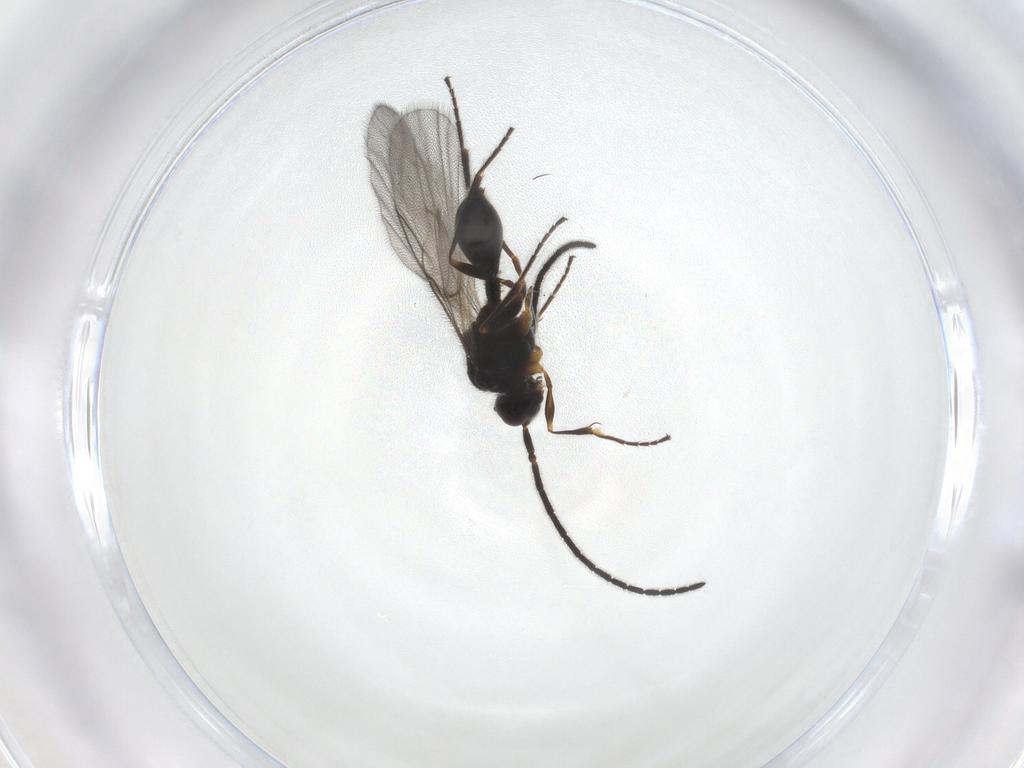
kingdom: Animalia
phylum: Arthropoda
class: Insecta
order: Hymenoptera
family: Diapriidae
